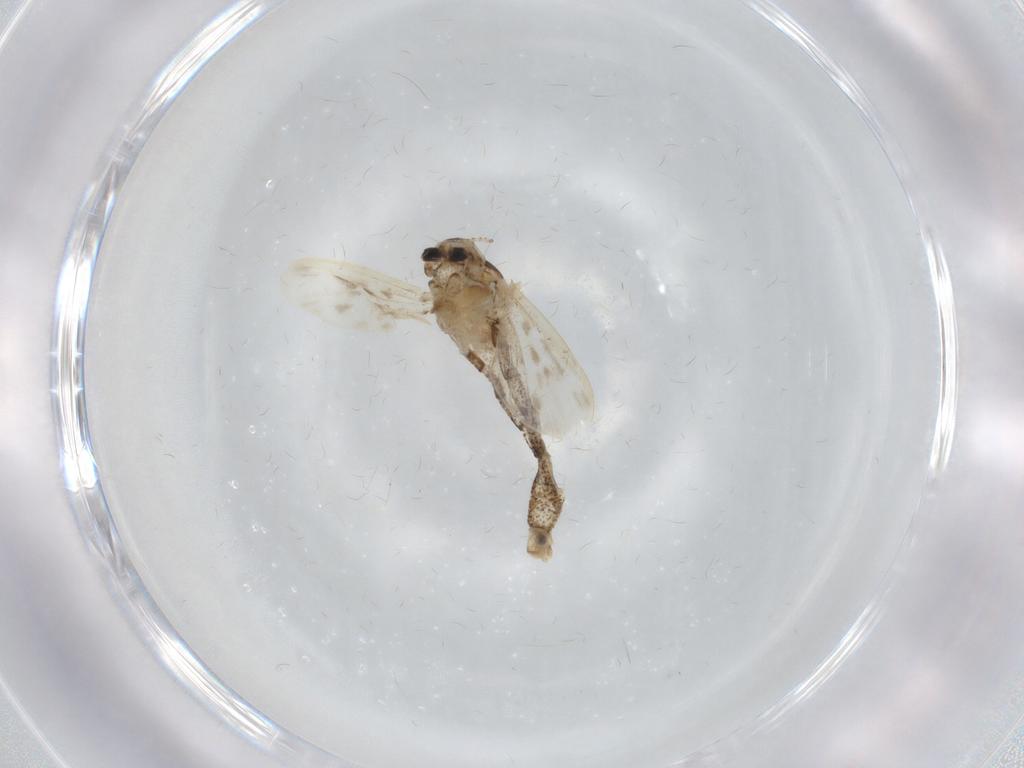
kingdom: Animalia
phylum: Arthropoda
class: Insecta
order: Diptera
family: Chaoboridae
